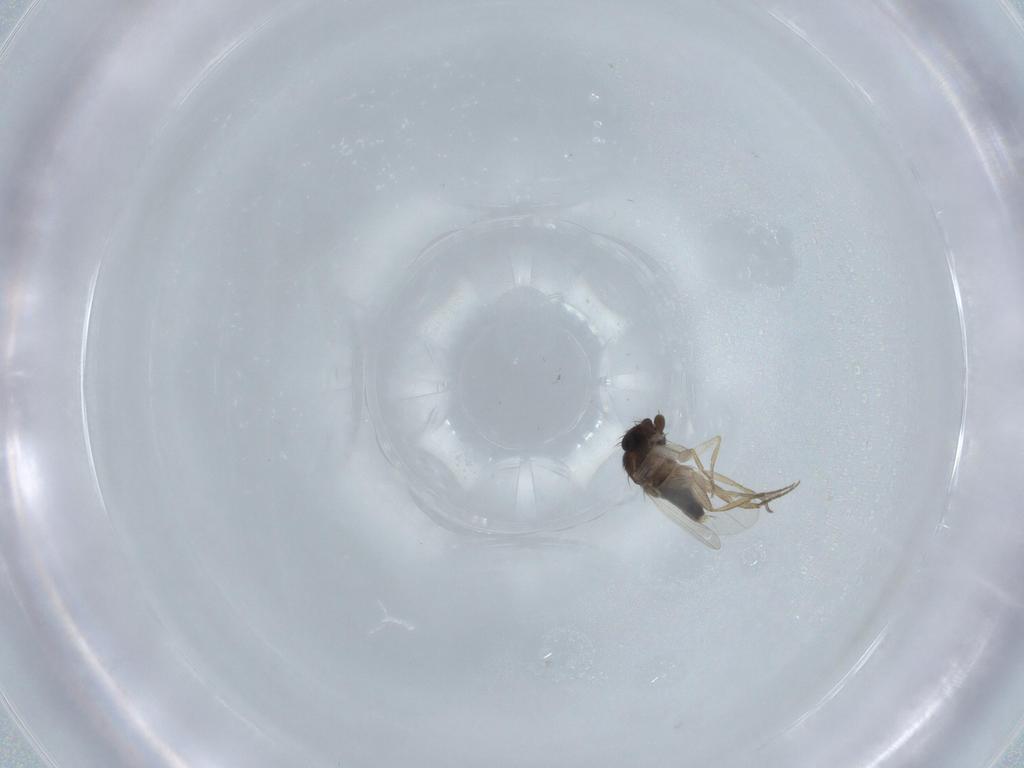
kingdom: Animalia
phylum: Arthropoda
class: Insecta
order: Diptera
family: Phoridae
